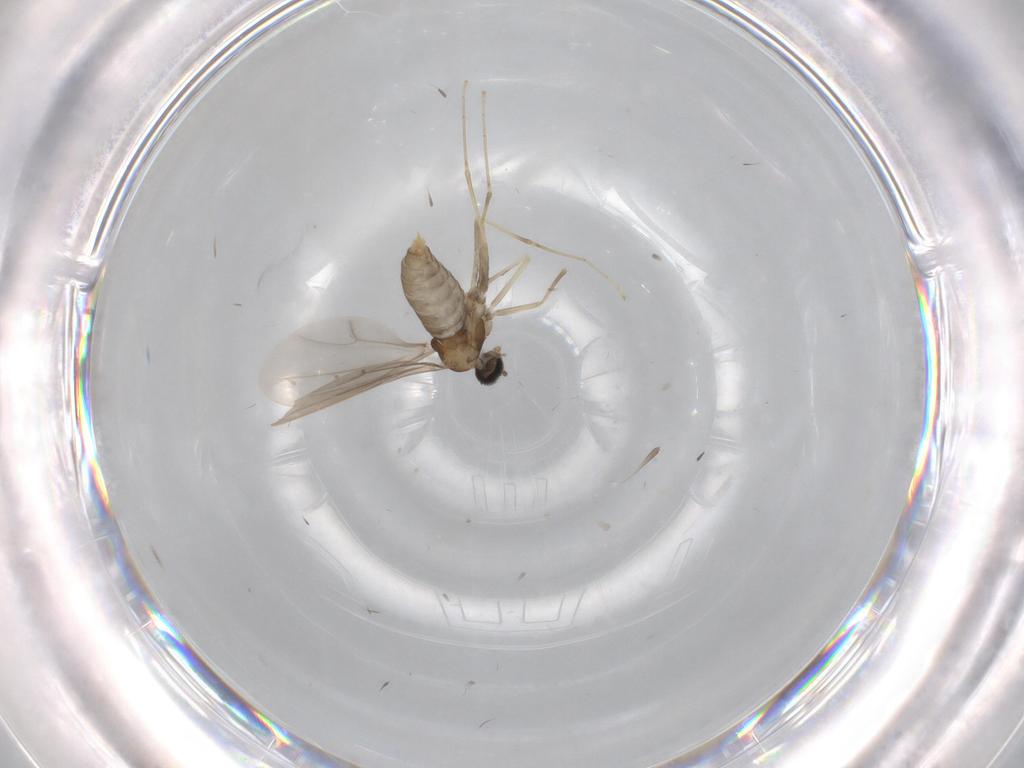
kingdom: Animalia
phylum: Arthropoda
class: Insecta
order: Diptera
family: Cecidomyiidae
